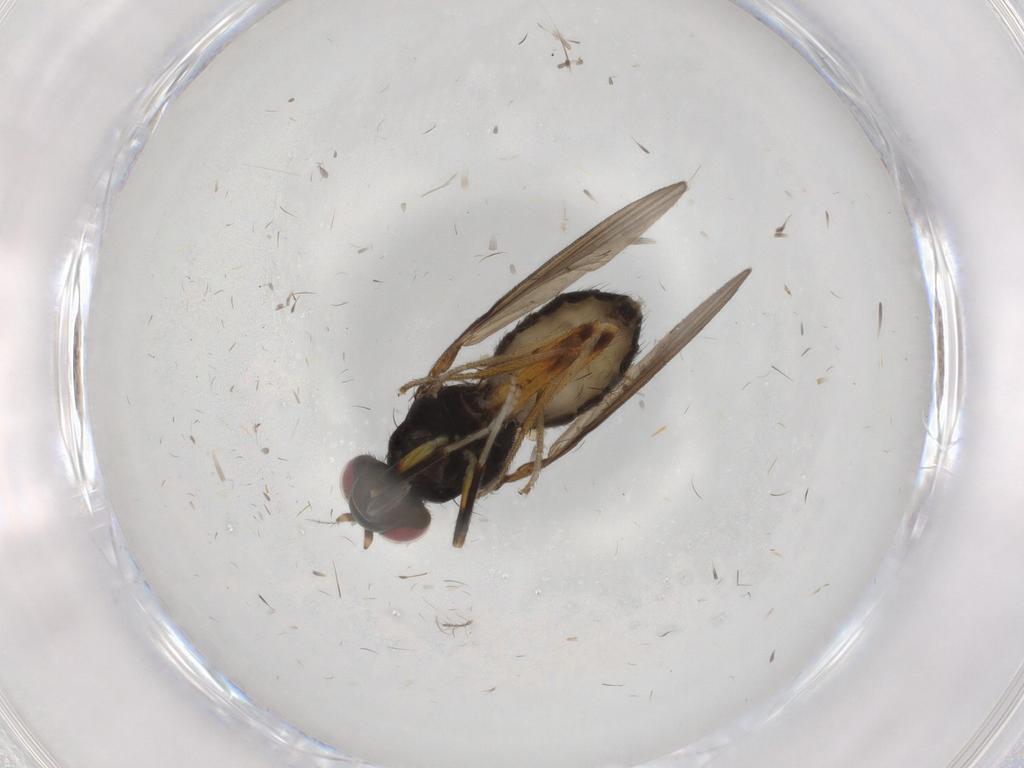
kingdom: Animalia
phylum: Arthropoda
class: Insecta
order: Diptera
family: Lauxaniidae
